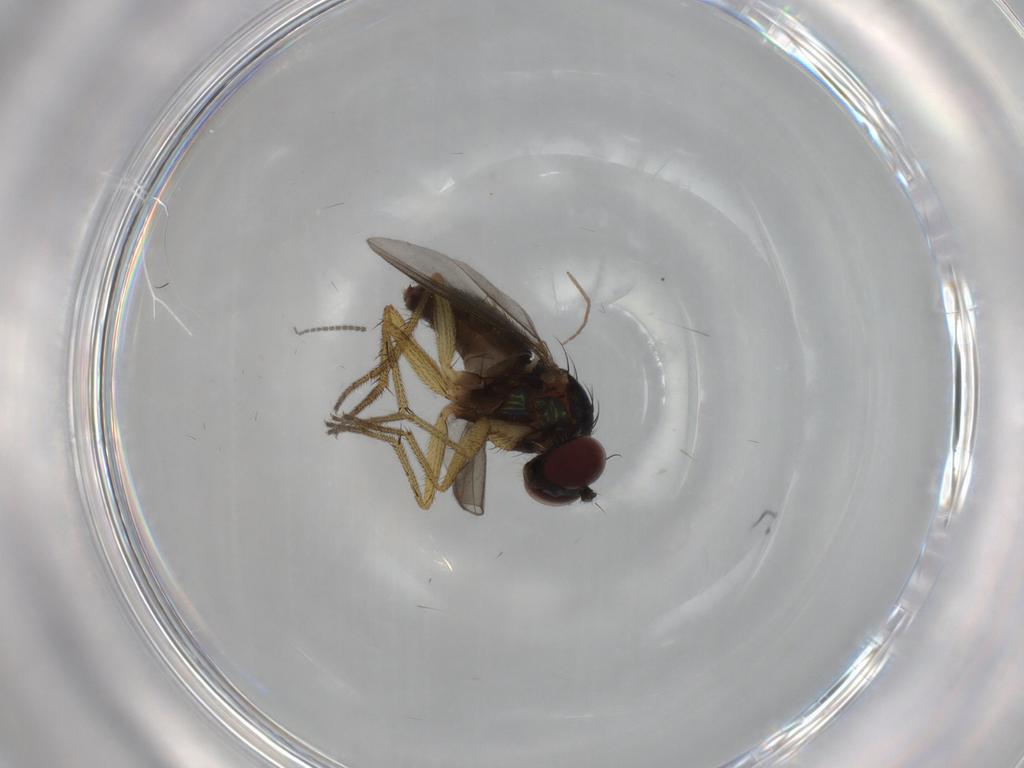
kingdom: Animalia
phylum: Arthropoda
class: Insecta
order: Diptera
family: Sciaridae
